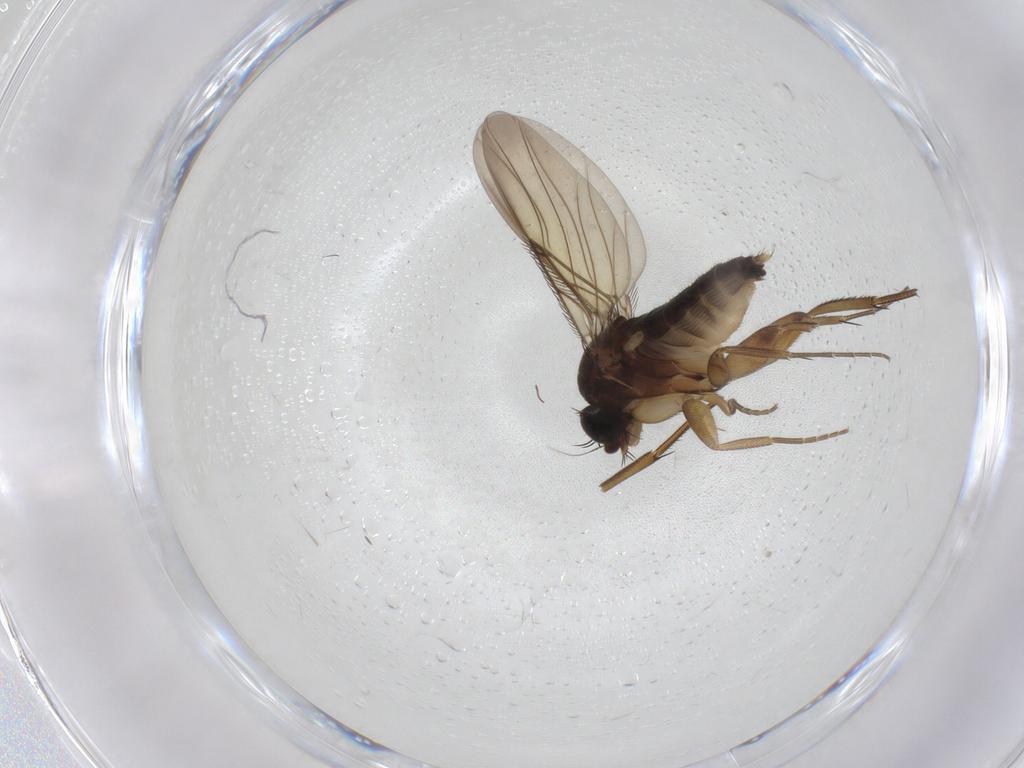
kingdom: Animalia
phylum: Arthropoda
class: Insecta
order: Diptera
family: Phoridae
